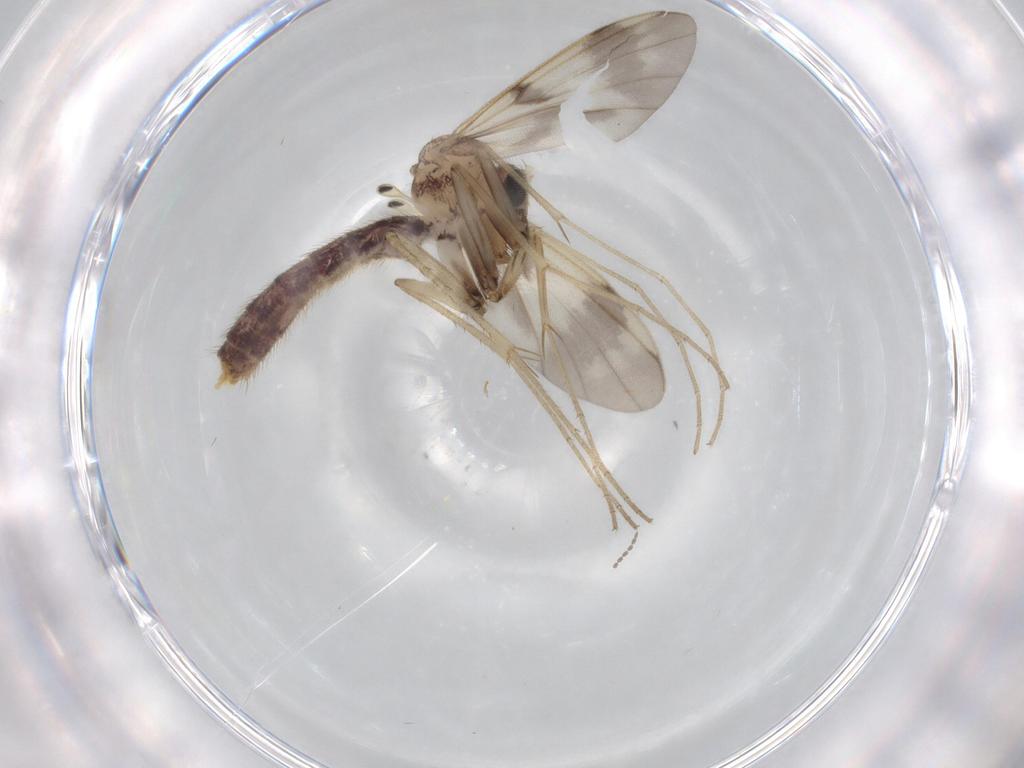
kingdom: Animalia
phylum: Arthropoda
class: Insecta
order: Diptera
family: Mycetophilidae
